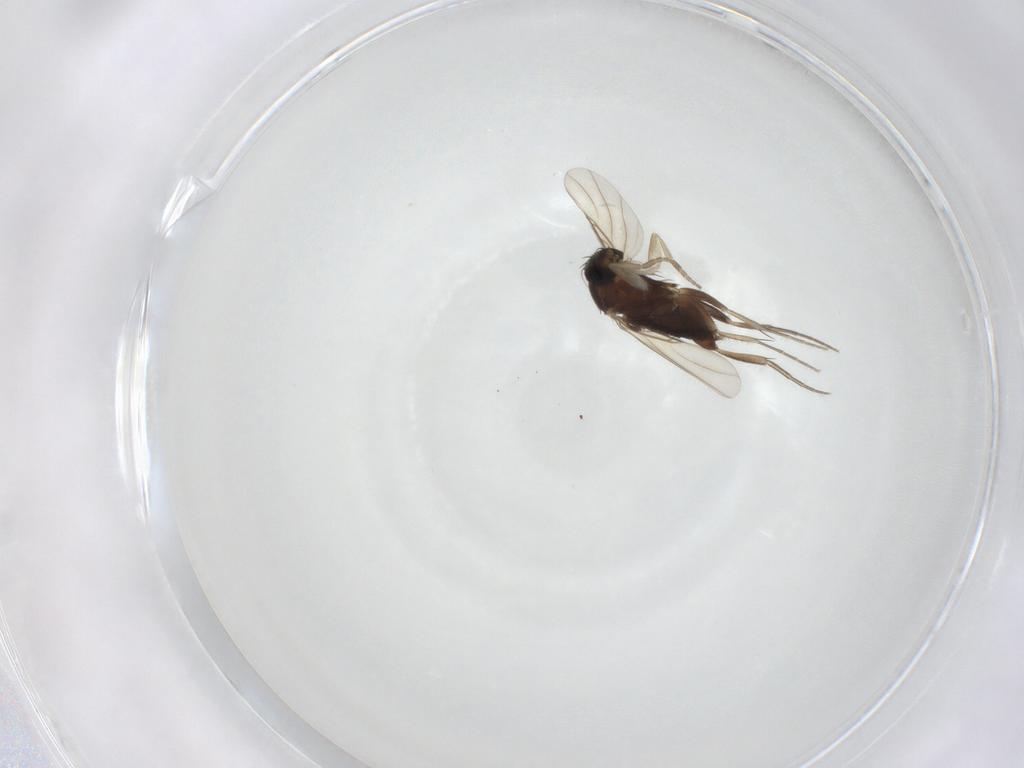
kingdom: Animalia
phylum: Arthropoda
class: Insecta
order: Diptera
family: Phoridae
